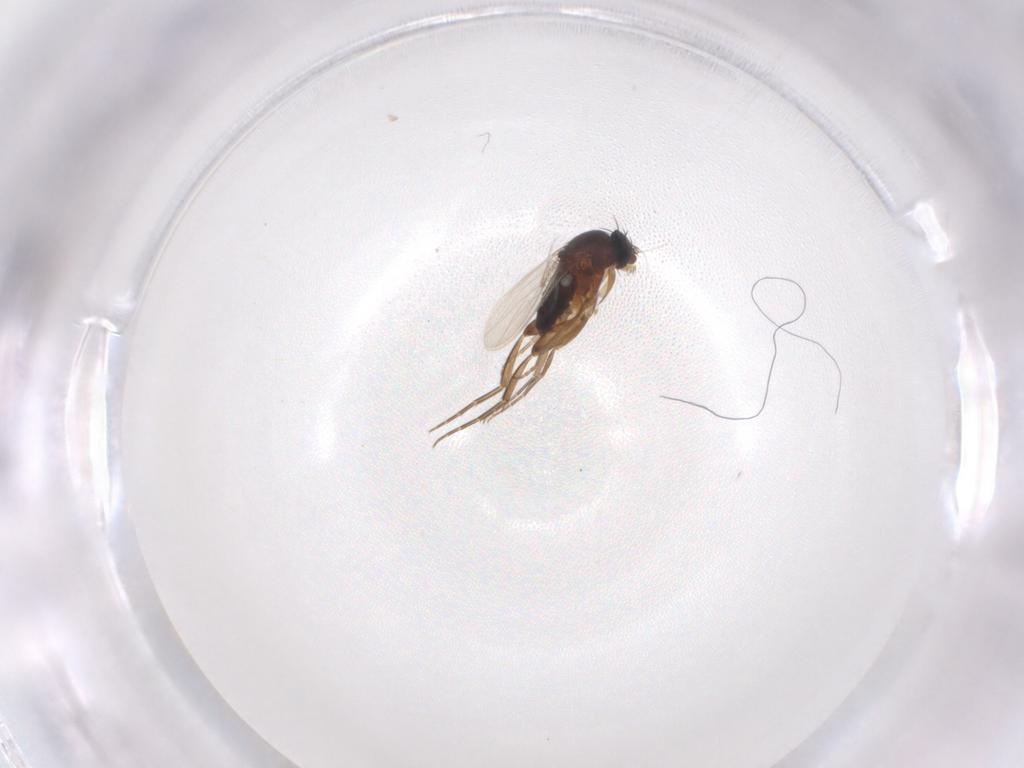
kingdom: Animalia
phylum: Arthropoda
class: Insecta
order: Diptera
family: Phoridae
